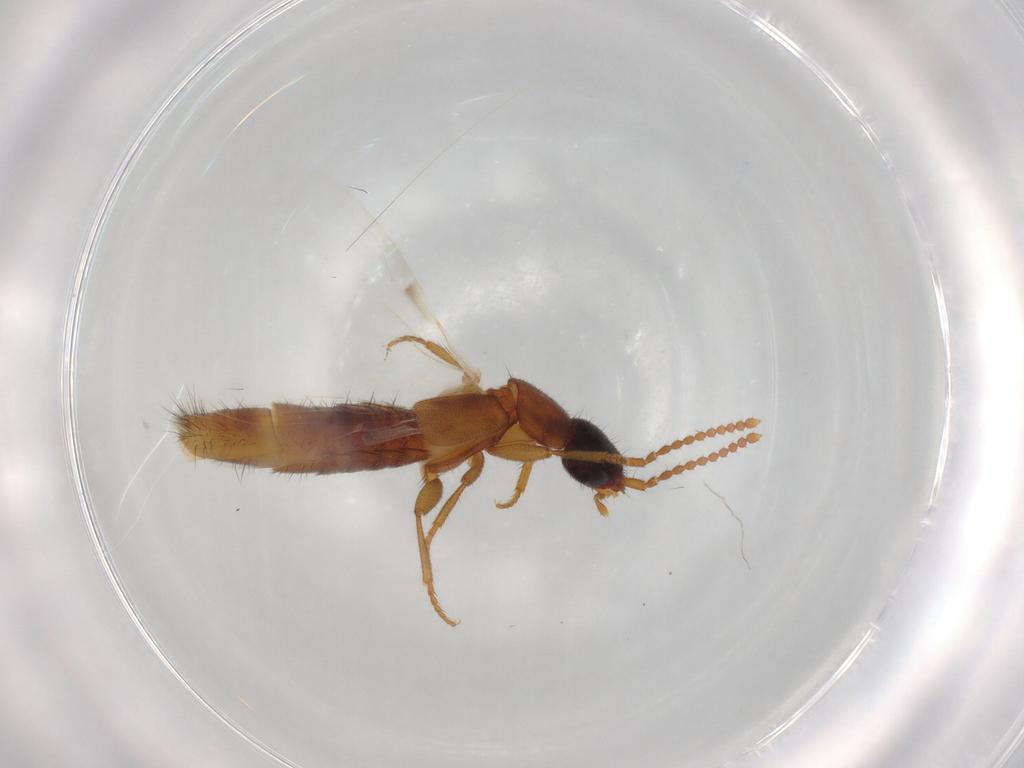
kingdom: Animalia
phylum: Arthropoda
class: Insecta
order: Coleoptera
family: Staphylinidae
